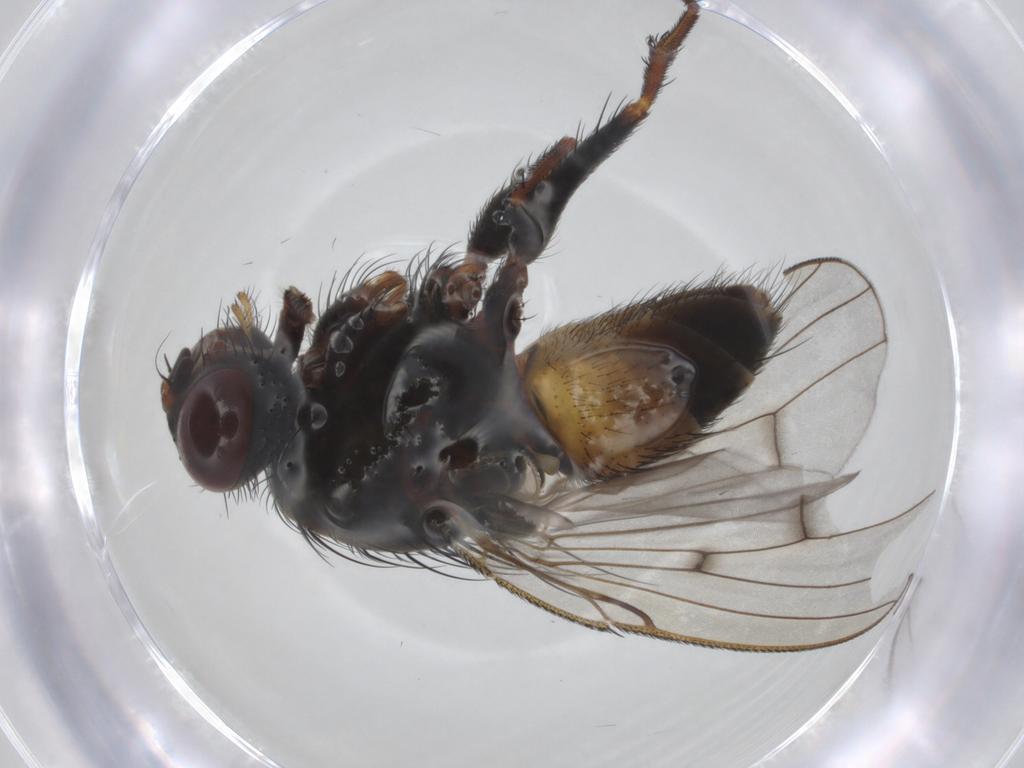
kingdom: Animalia
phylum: Arthropoda
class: Insecta
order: Diptera
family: Muscidae
